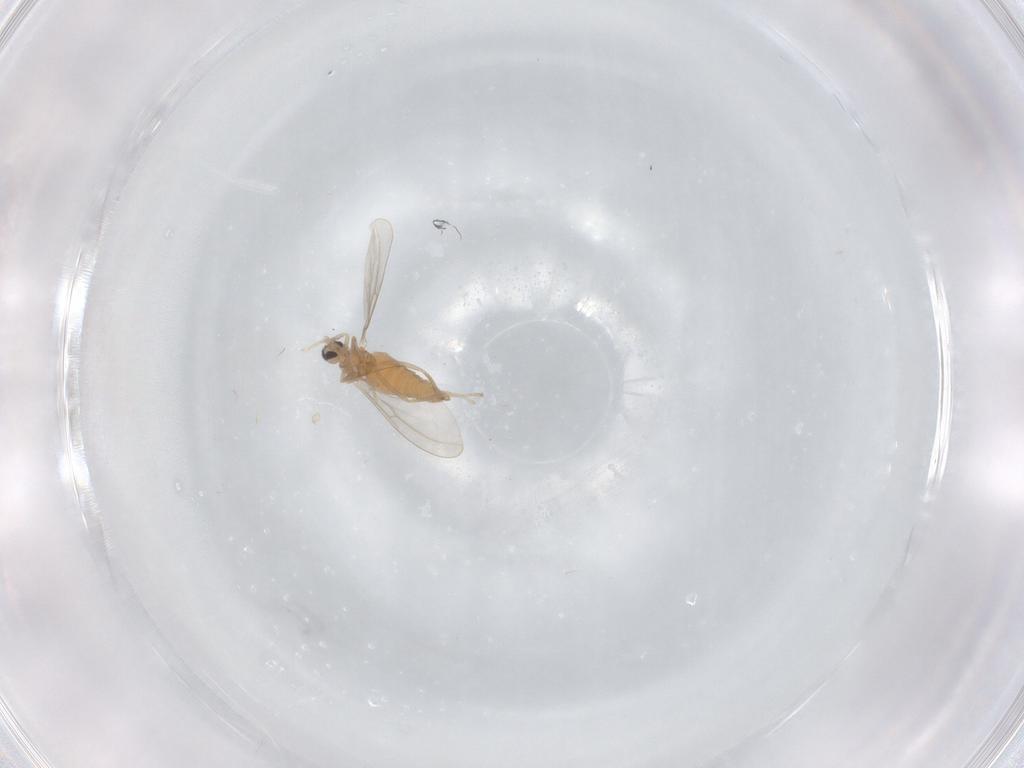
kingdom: Animalia
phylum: Arthropoda
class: Insecta
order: Diptera
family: Cecidomyiidae
